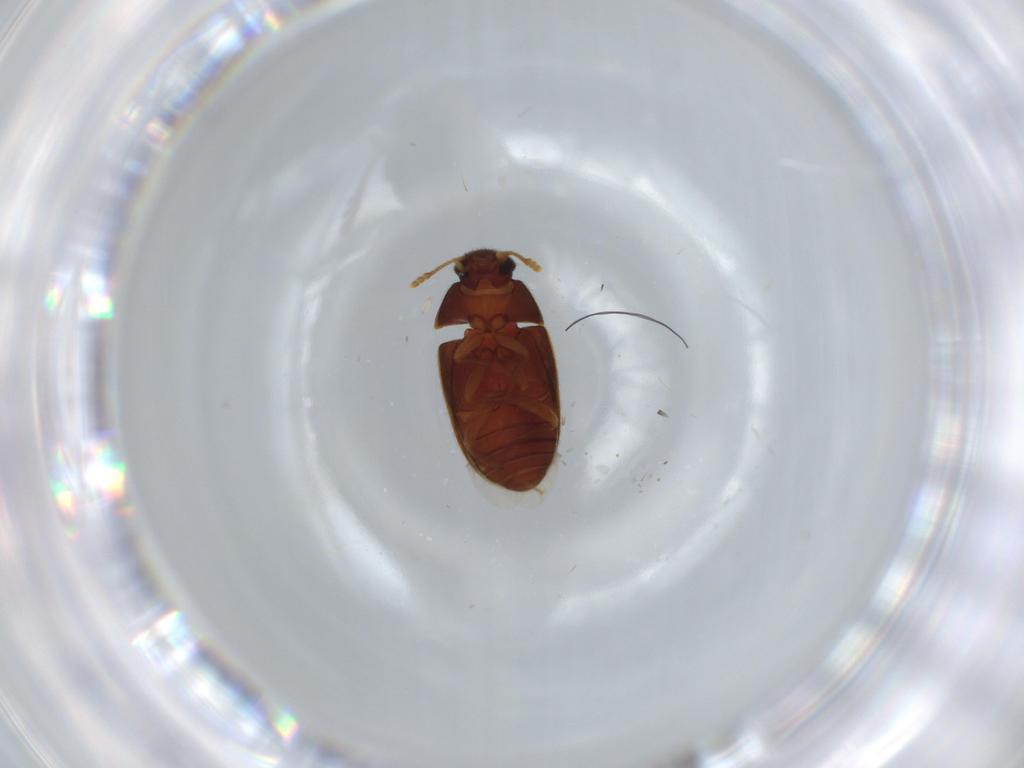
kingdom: Animalia
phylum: Arthropoda
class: Insecta
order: Coleoptera
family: Mycetophagidae
